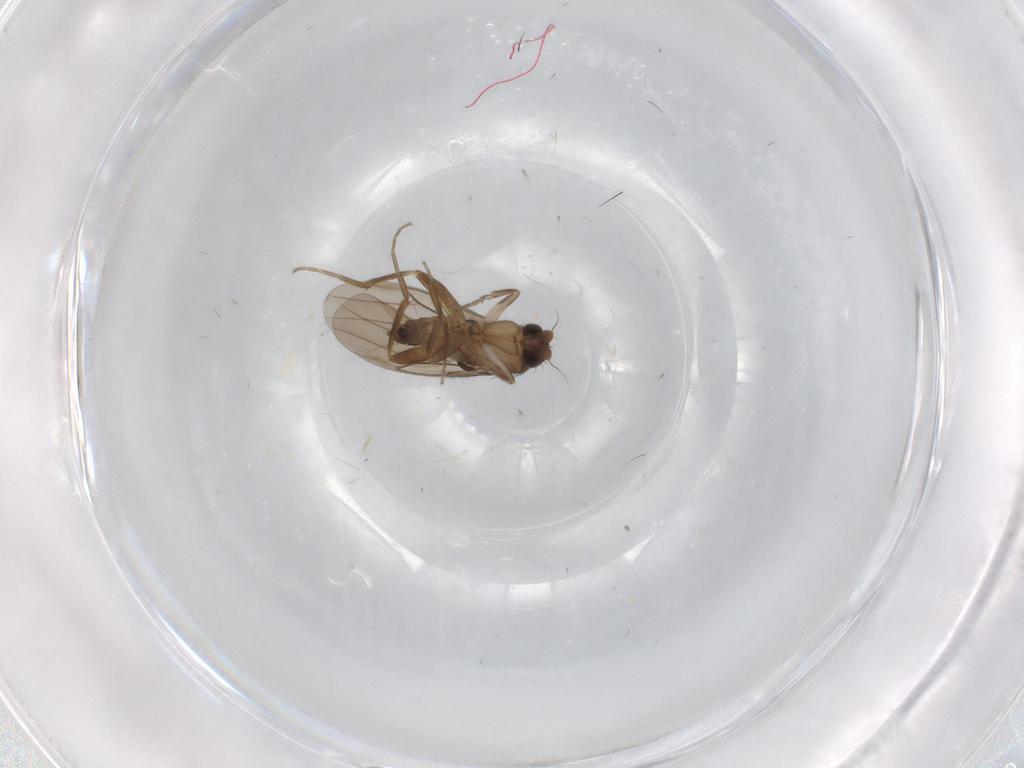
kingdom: Animalia
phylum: Arthropoda
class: Insecta
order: Diptera
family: Limoniidae
